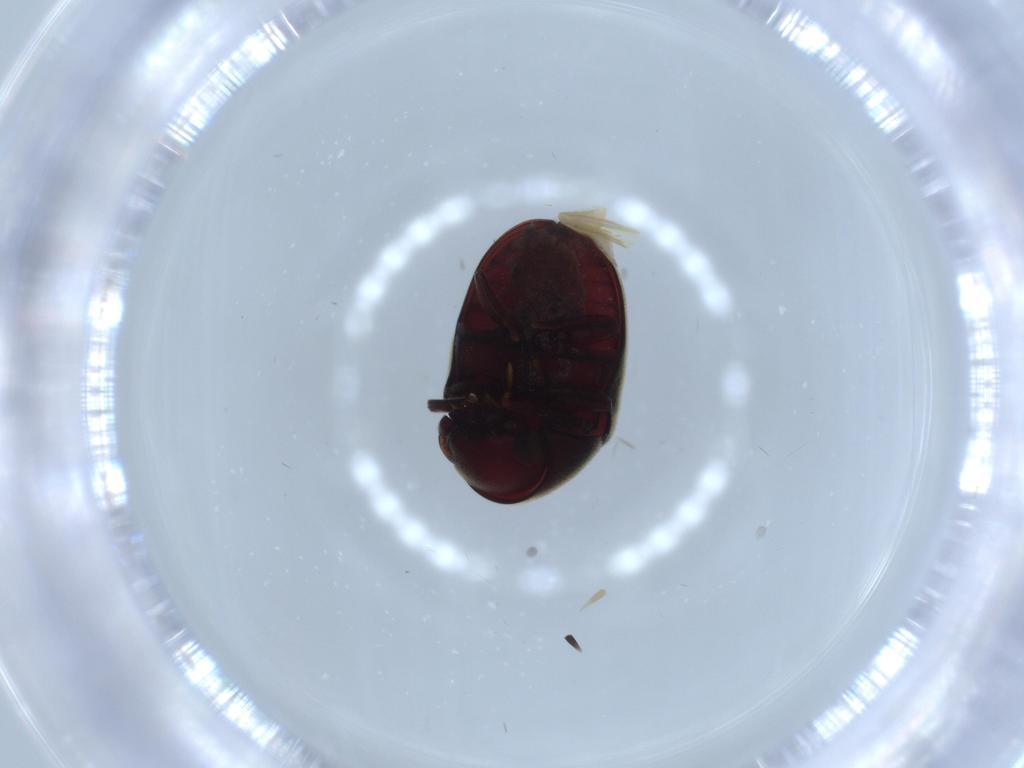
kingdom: Animalia
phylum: Arthropoda
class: Insecta
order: Coleoptera
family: Ptinidae
